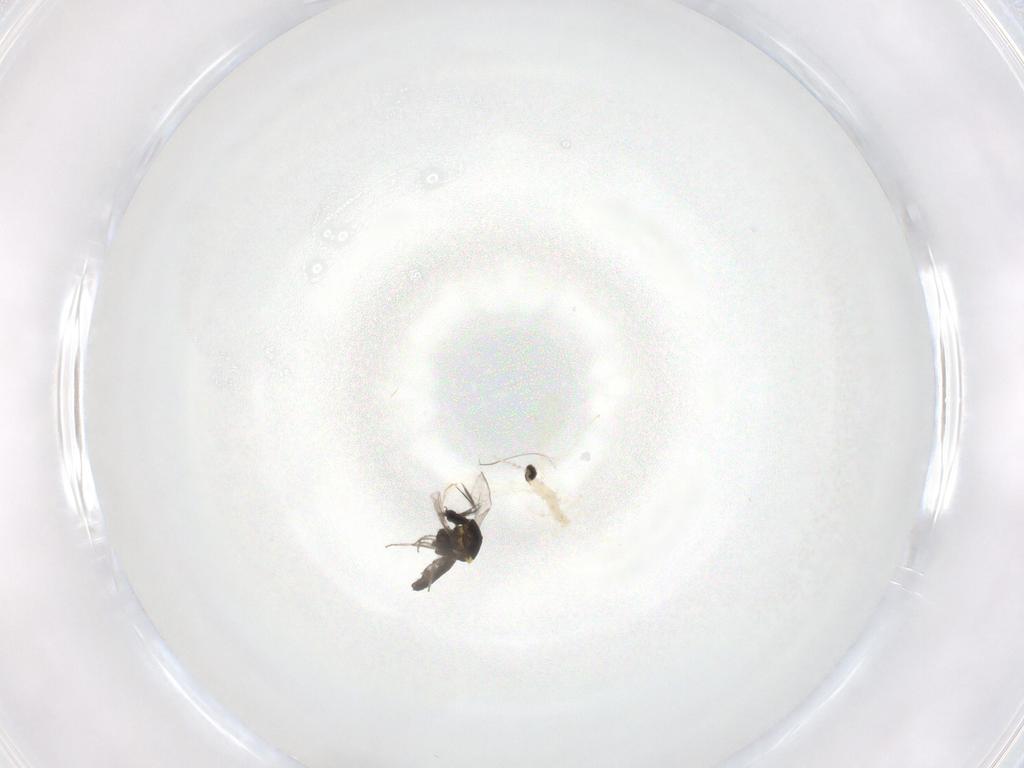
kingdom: Animalia
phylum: Arthropoda
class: Insecta
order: Diptera
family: Ceratopogonidae
